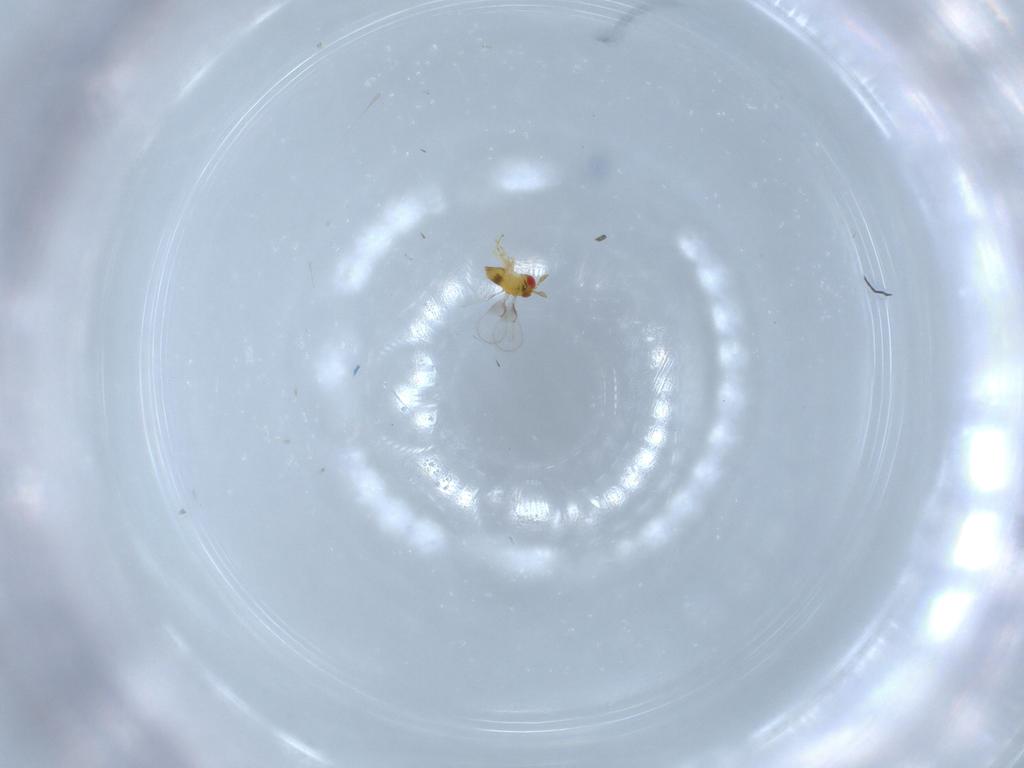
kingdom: Animalia
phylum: Arthropoda
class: Insecta
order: Hymenoptera
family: Trichogrammatidae
